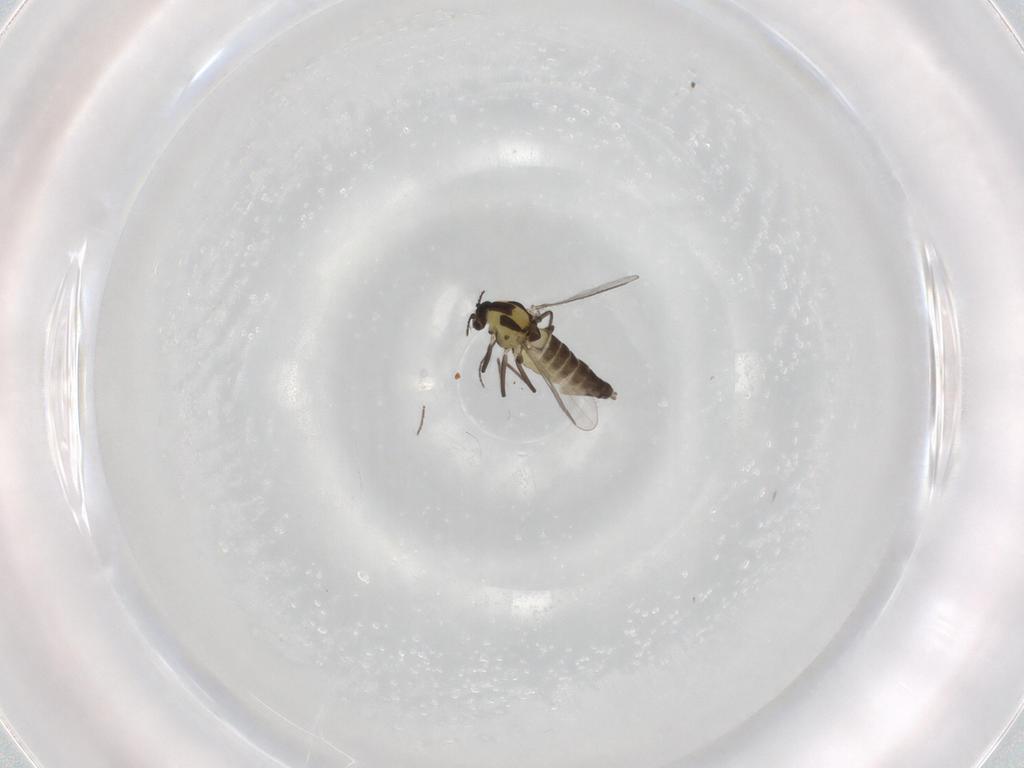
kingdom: Animalia
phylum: Arthropoda
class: Insecta
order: Diptera
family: Chironomidae
